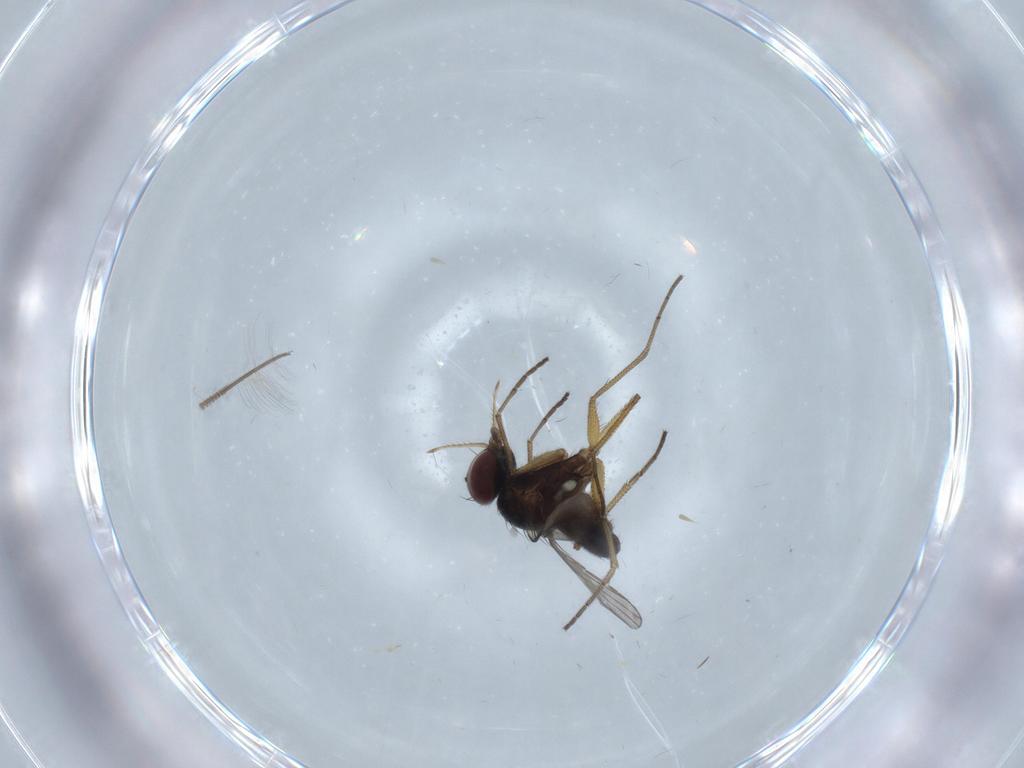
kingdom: Animalia
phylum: Arthropoda
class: Insecta
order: Diptera
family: Dolichopodidae
